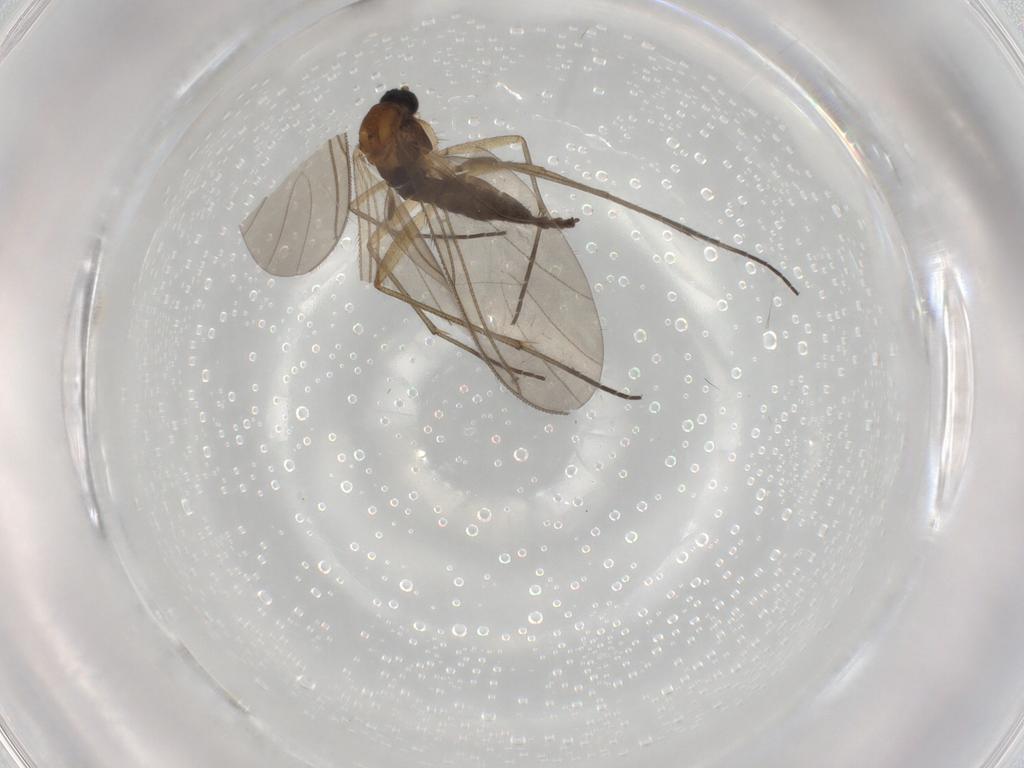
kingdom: Animalia
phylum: Arthropoda
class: Insecta
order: Diptera
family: Sciaridae
